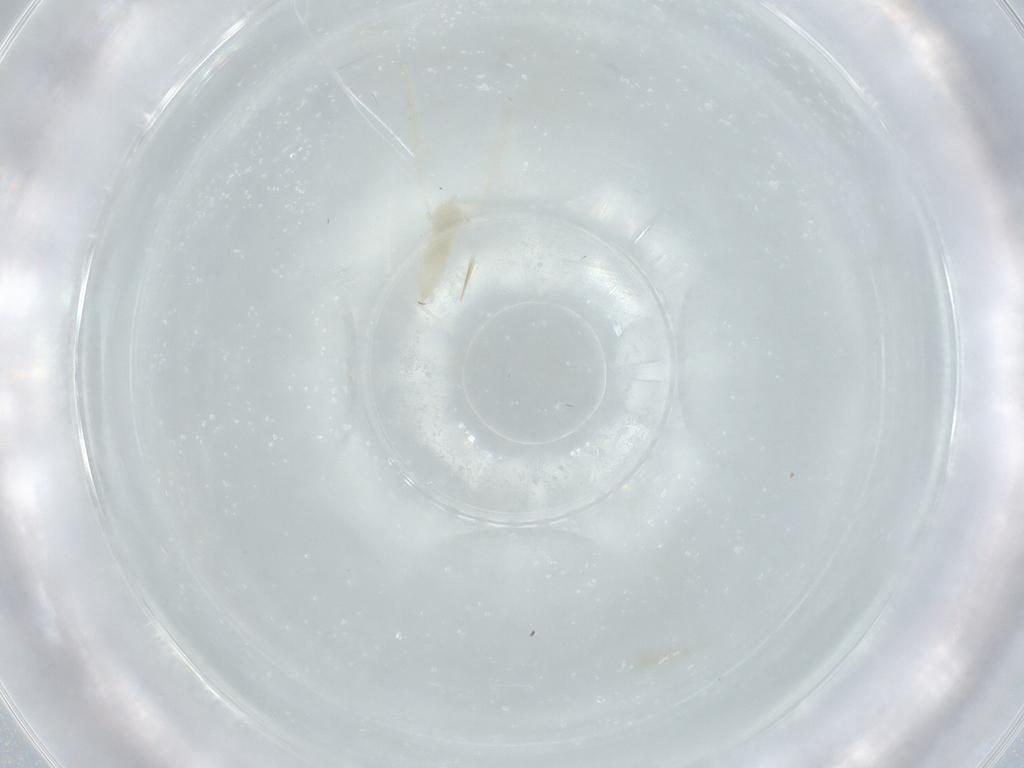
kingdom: Animalia
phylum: Arthropoda
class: Insecta
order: Diptera
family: Cecidomyiidae
